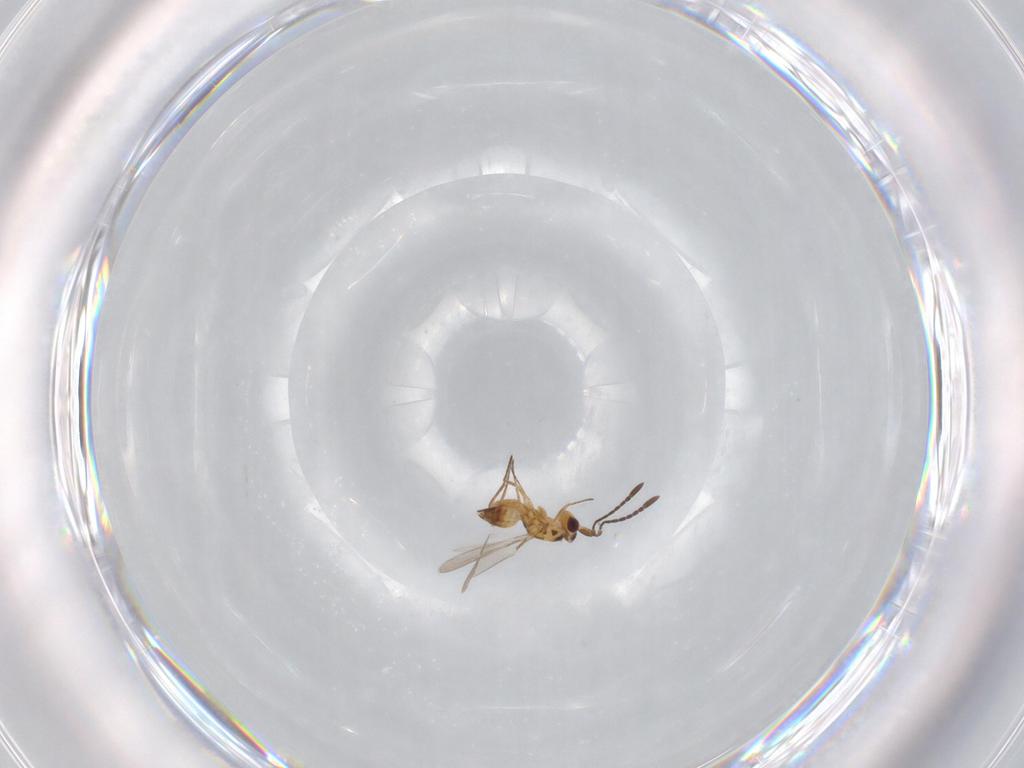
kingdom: Animalia
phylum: Arthropoda
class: Insecta
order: Hymenoptera
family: Mymaridae
